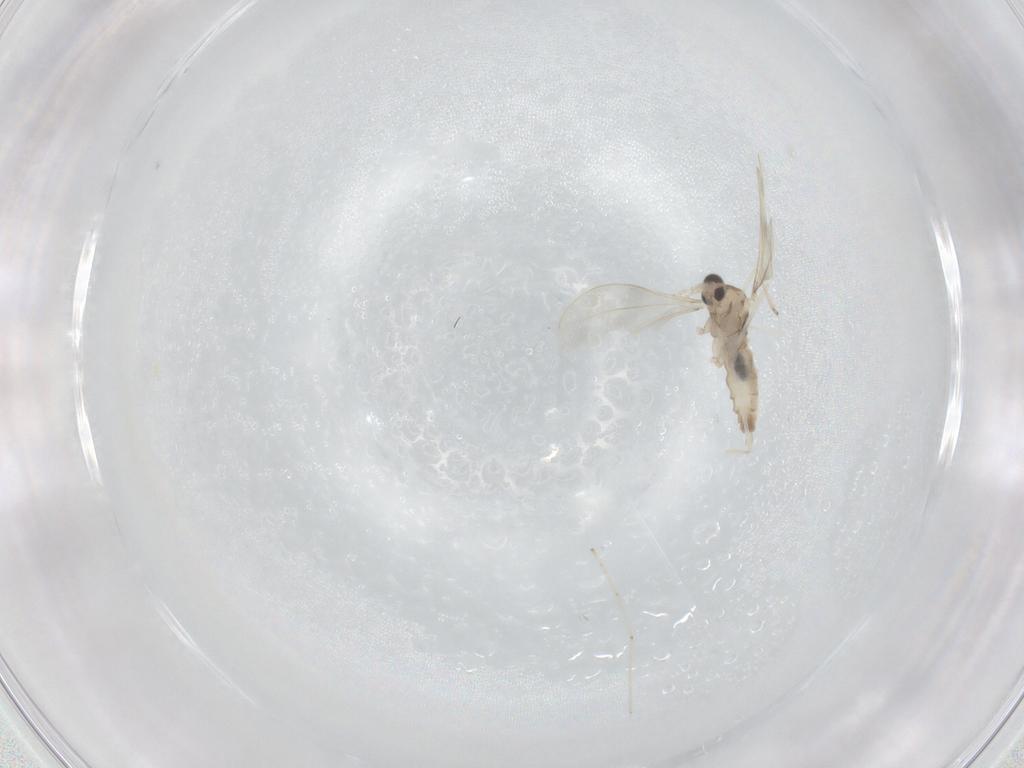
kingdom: Animalia
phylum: Arthropoda
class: Insecta
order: Diptera
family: Cecidomyiidae
